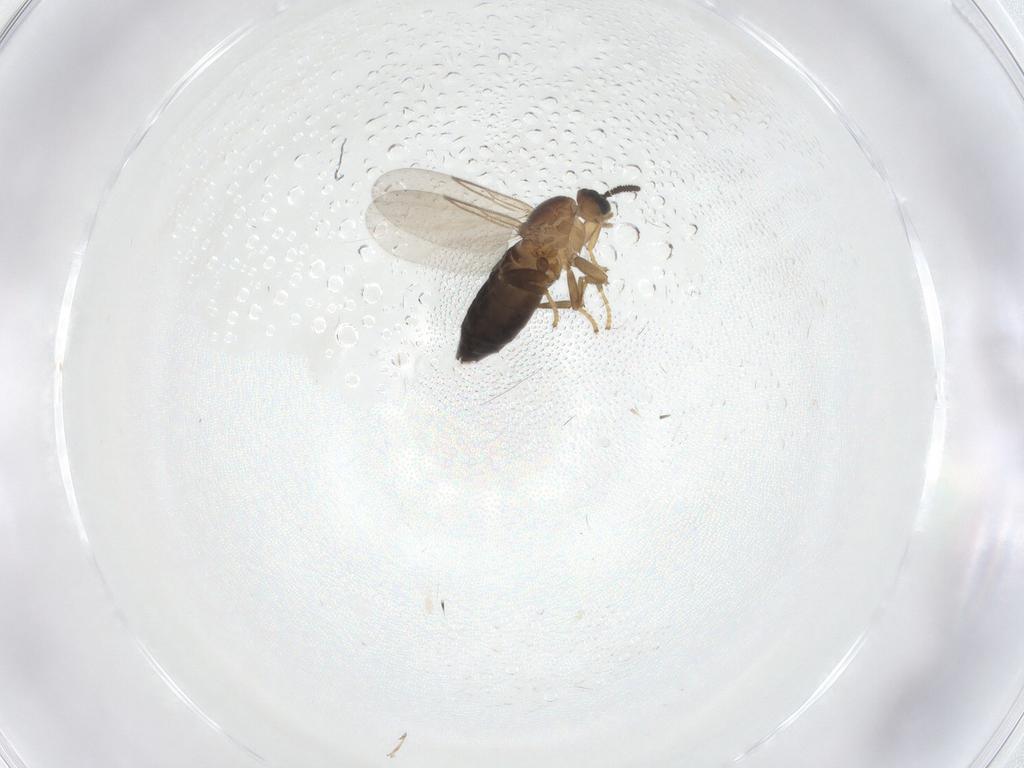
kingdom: Animalia
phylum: Arthropoda
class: Insecta
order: Diptera
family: Scatopsidae
